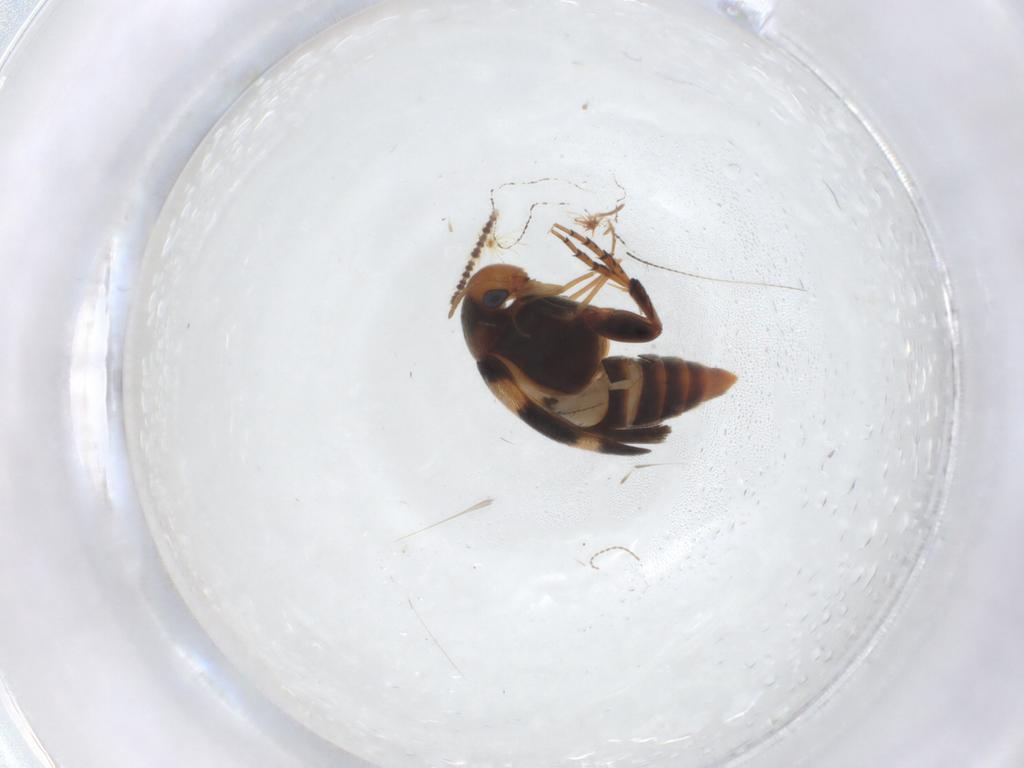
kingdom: Animalia
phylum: Arthropoda
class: Insecta
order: Coleoptera
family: Mordellidae
